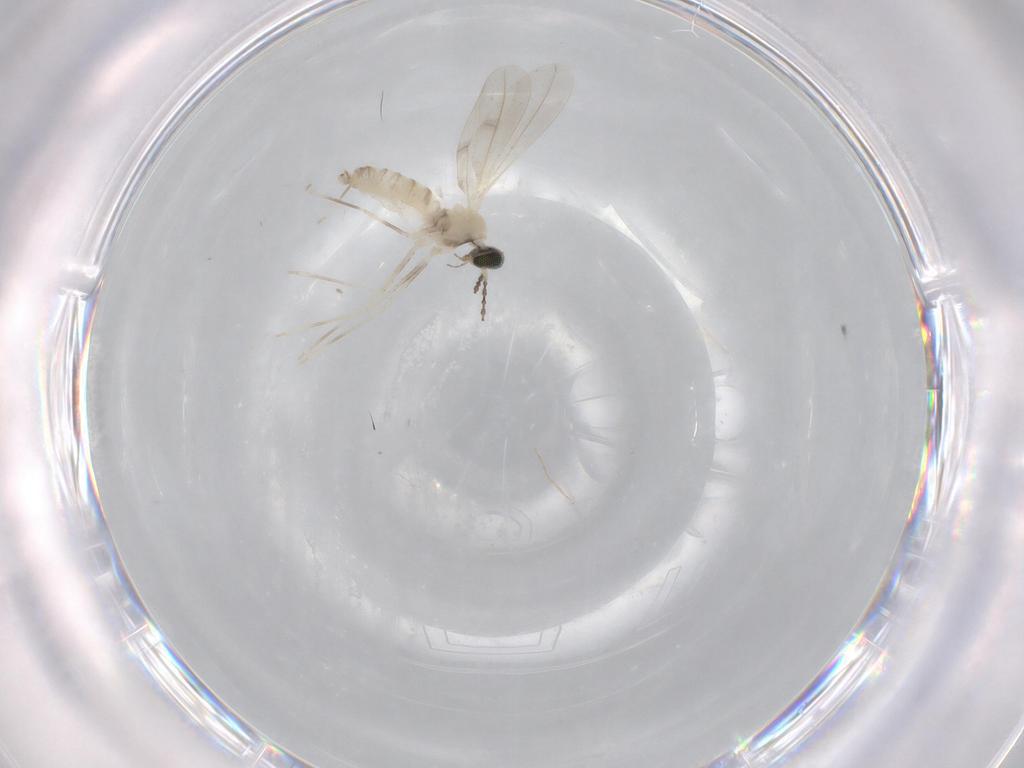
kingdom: Animalia
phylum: Arthropoda
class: Insecta
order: Diptera
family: Cecidomyiidae
